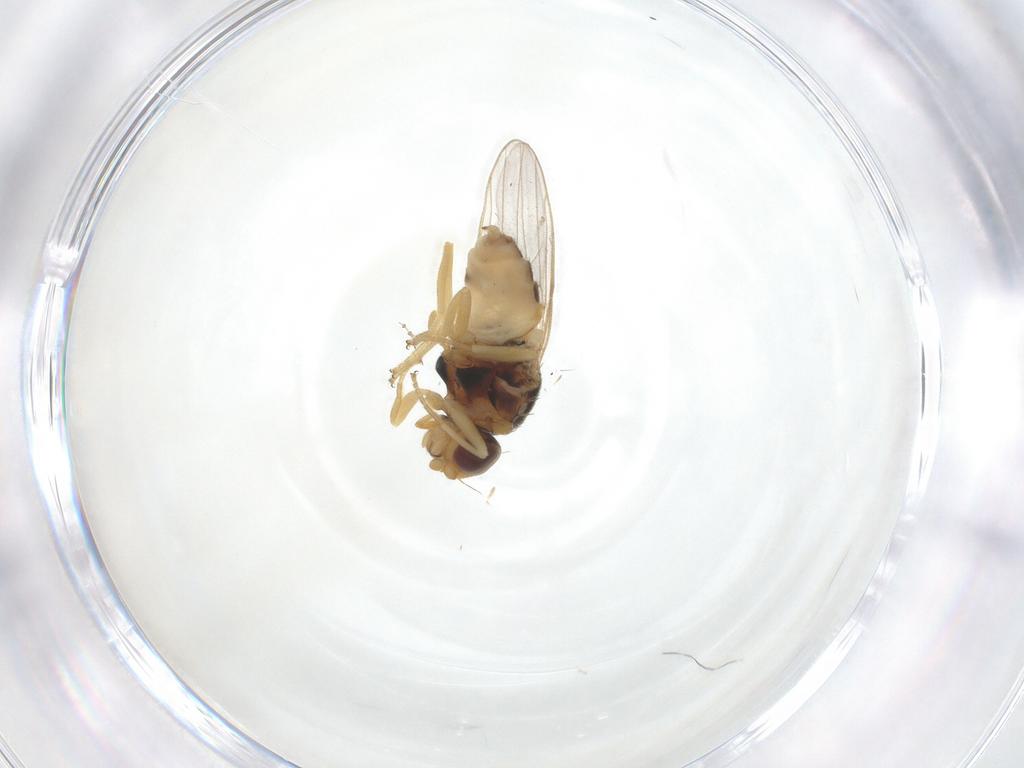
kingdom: Animalia
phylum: Arthropoda
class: Insecta
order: Diptera
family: Chloropidae
